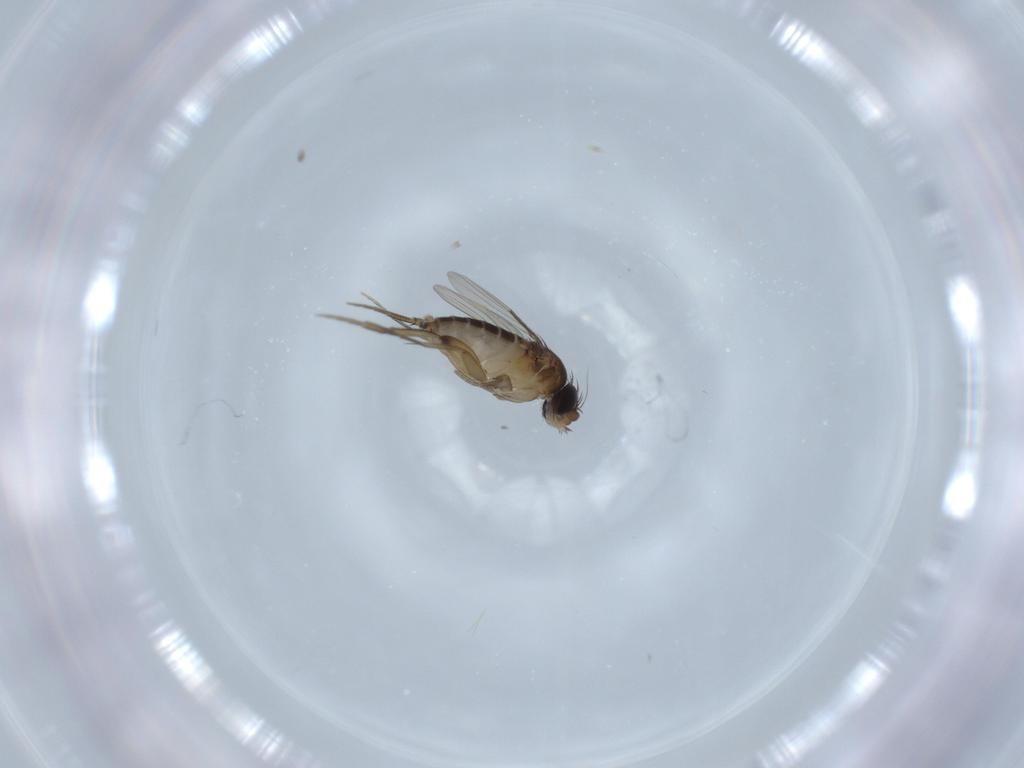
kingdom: Animalia
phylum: Arthropoda
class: Insecta
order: Diptera
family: Phoridae
